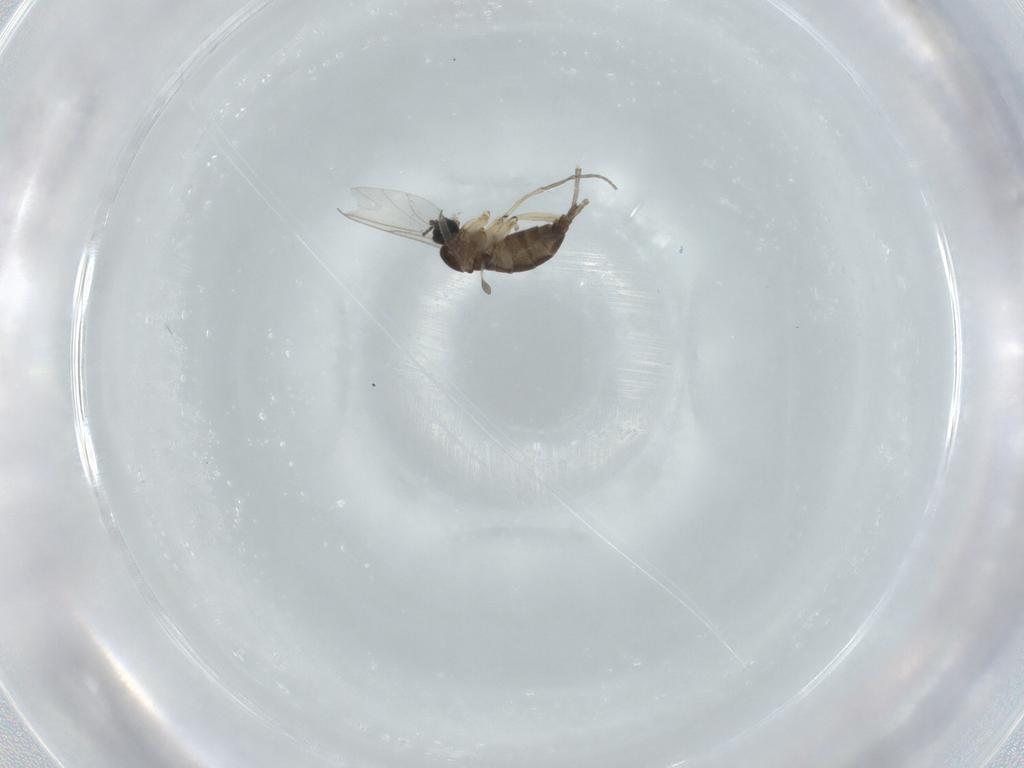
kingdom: Animalia
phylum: Arthropoda
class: Insecta
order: Diptera
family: Sciaridae
